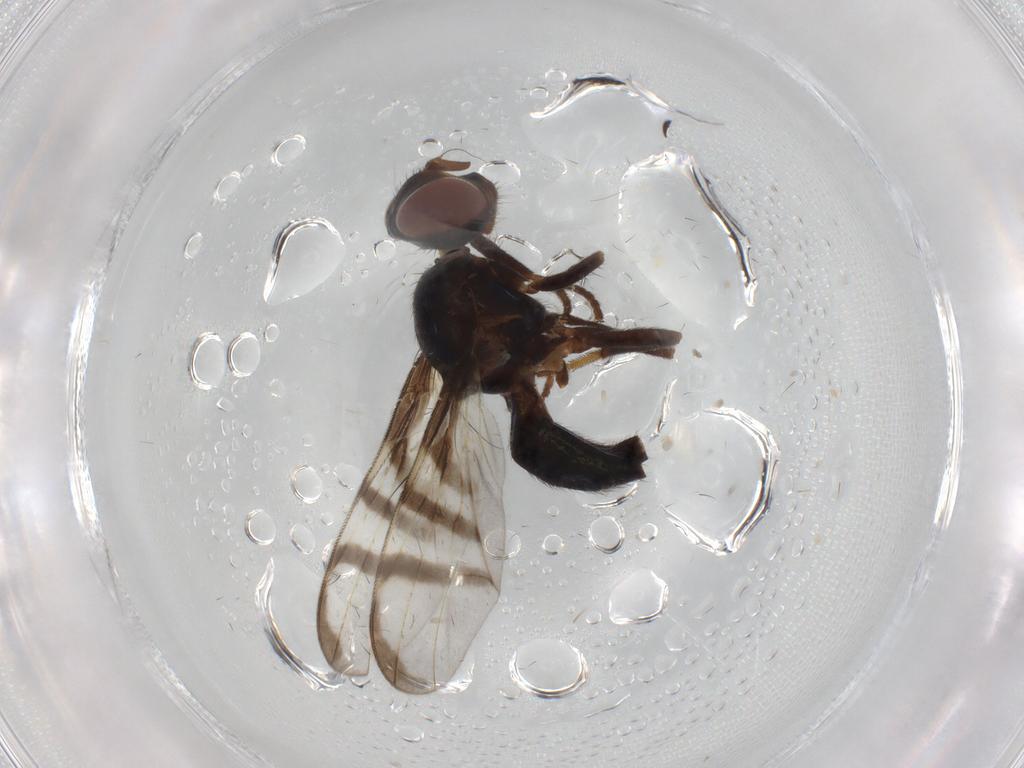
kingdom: Animalia
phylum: Arthropoda
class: Insecta
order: Diptera
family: Platystomatidae
